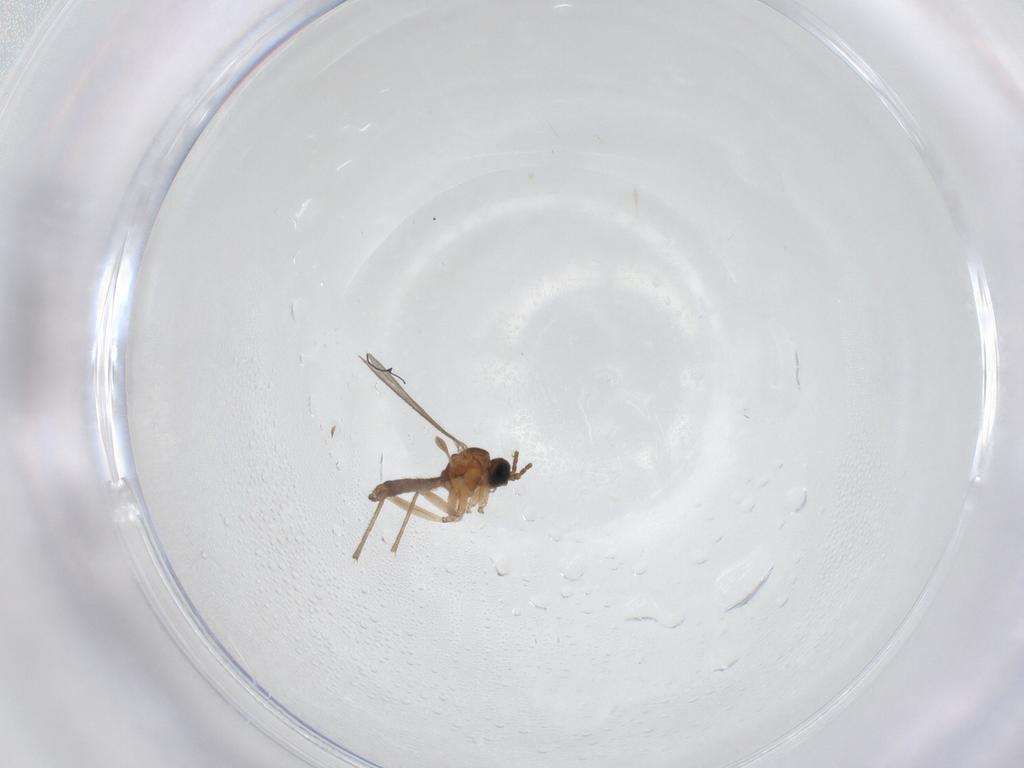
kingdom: Animalia
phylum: Arthropoda
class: Insecta
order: Diptera
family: Sciaridae
